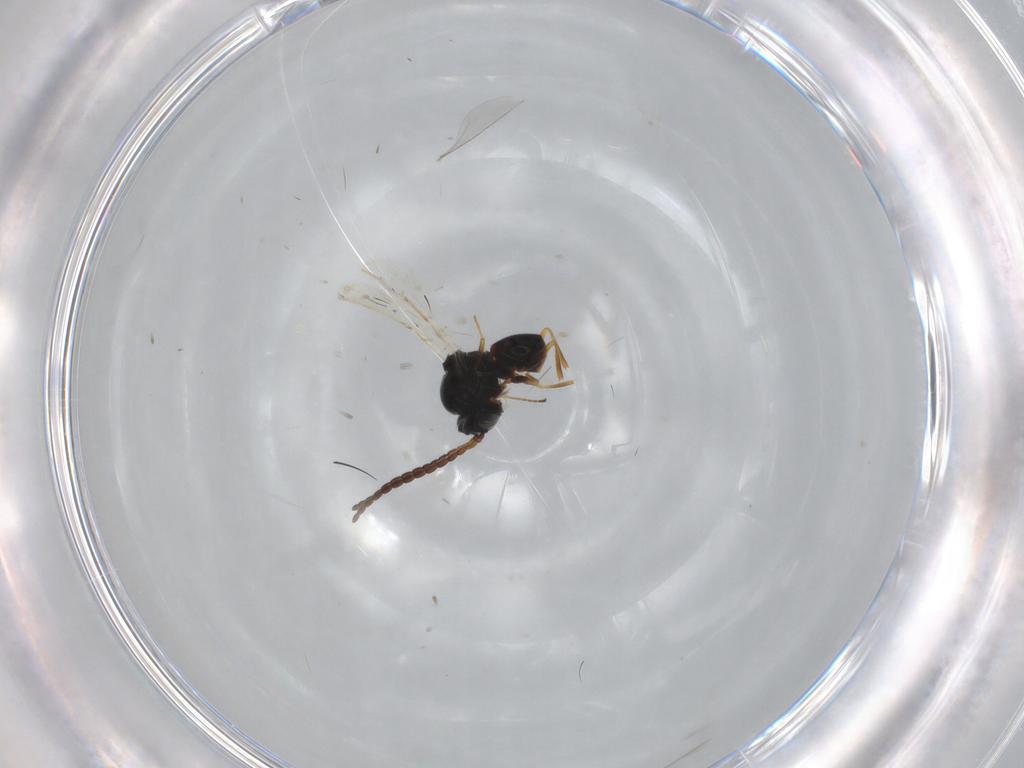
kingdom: Animalia
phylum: Arthropoda
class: Insecta
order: Hymenoptera
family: Figitidae
